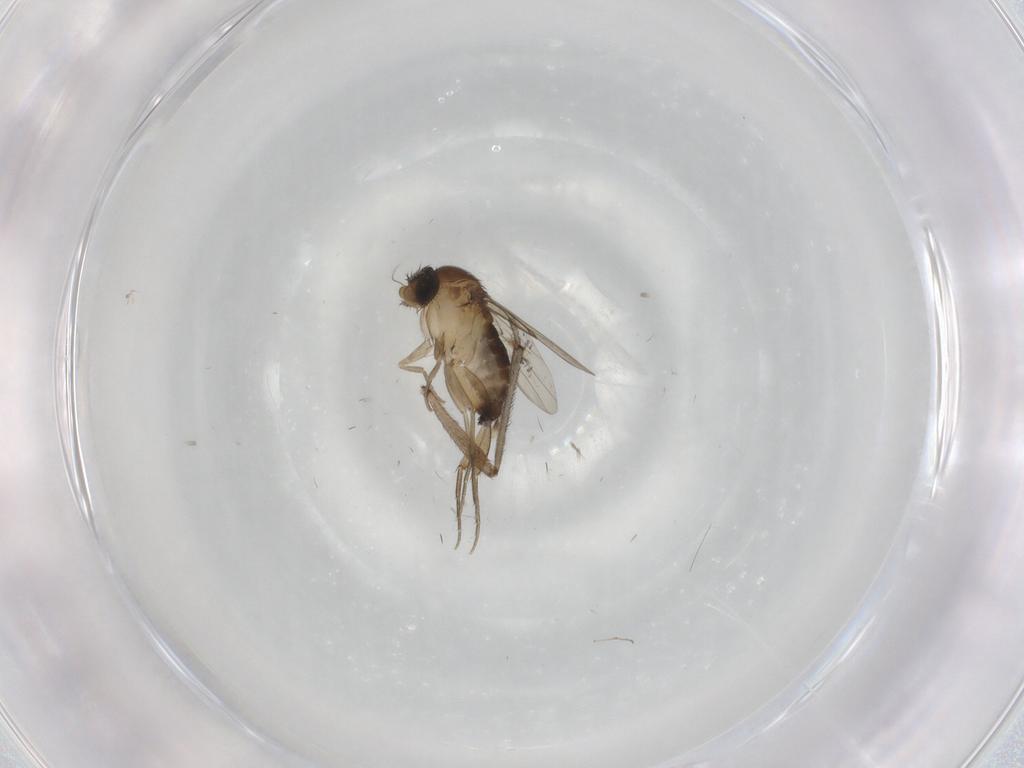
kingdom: Animalia
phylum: Arthropoda
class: Insecta
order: Diptera
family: Phoridae
